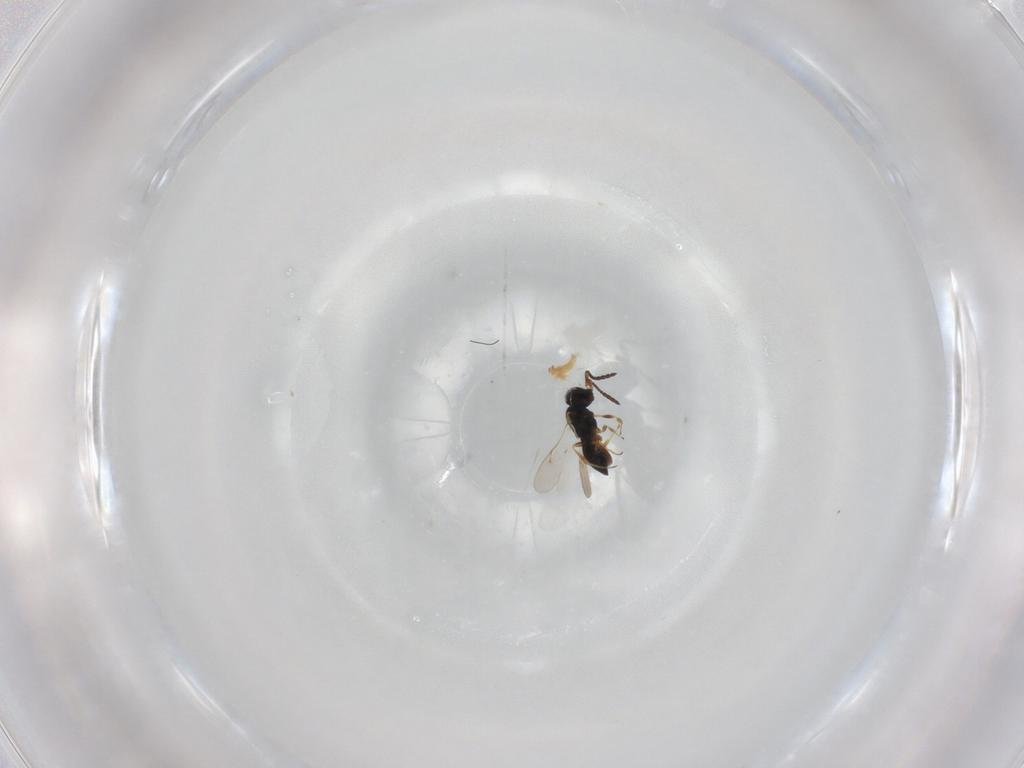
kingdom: Animalia
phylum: Arthropoda
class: Insecta
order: Hymenoptera
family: Scelionidae
